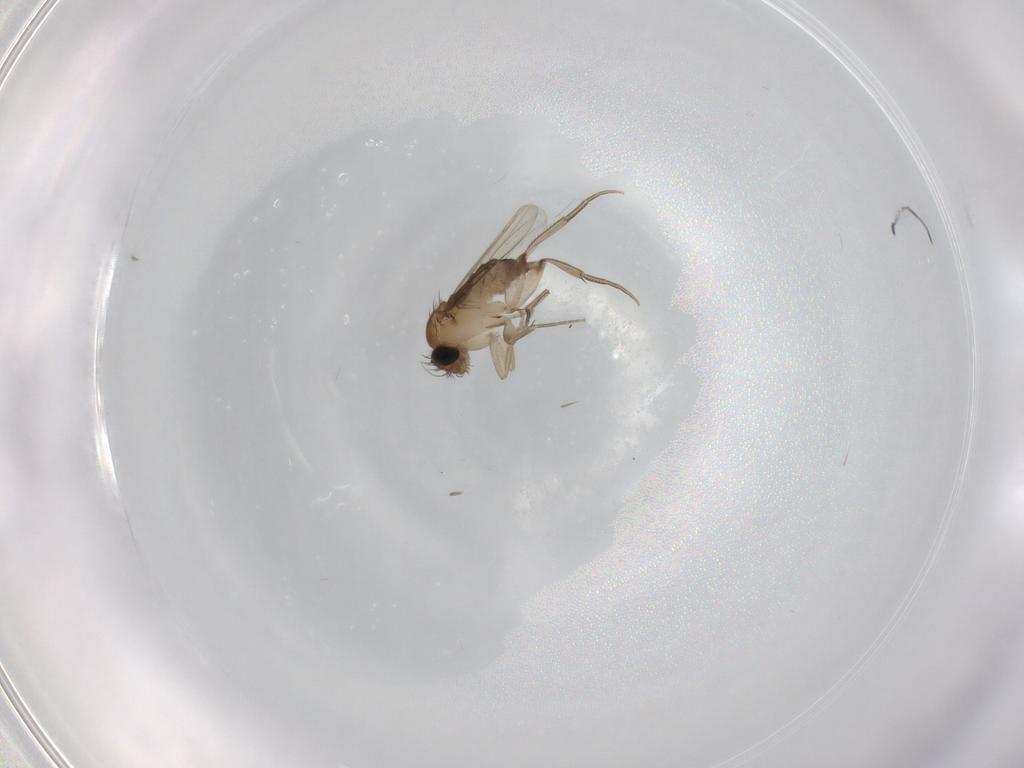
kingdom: Animalia
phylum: Arthropoda
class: Insecta
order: Diptera
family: Phoridae
